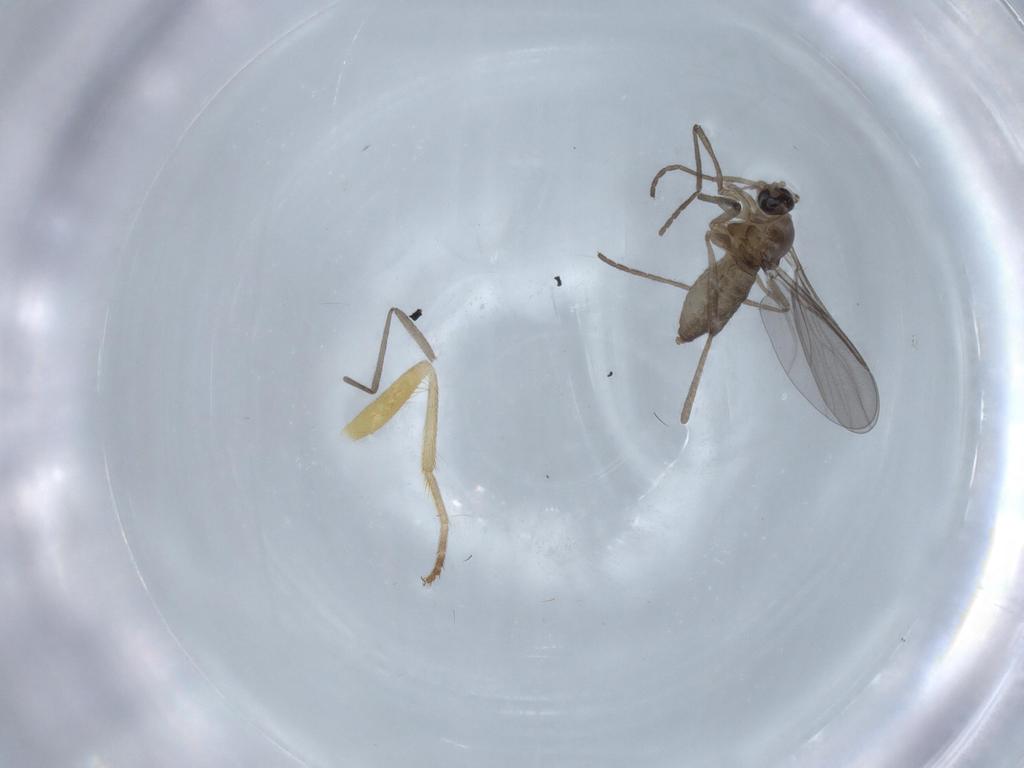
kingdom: Animalia
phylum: Arthropoda
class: Insecta
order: Diptera
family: Clusiidae
